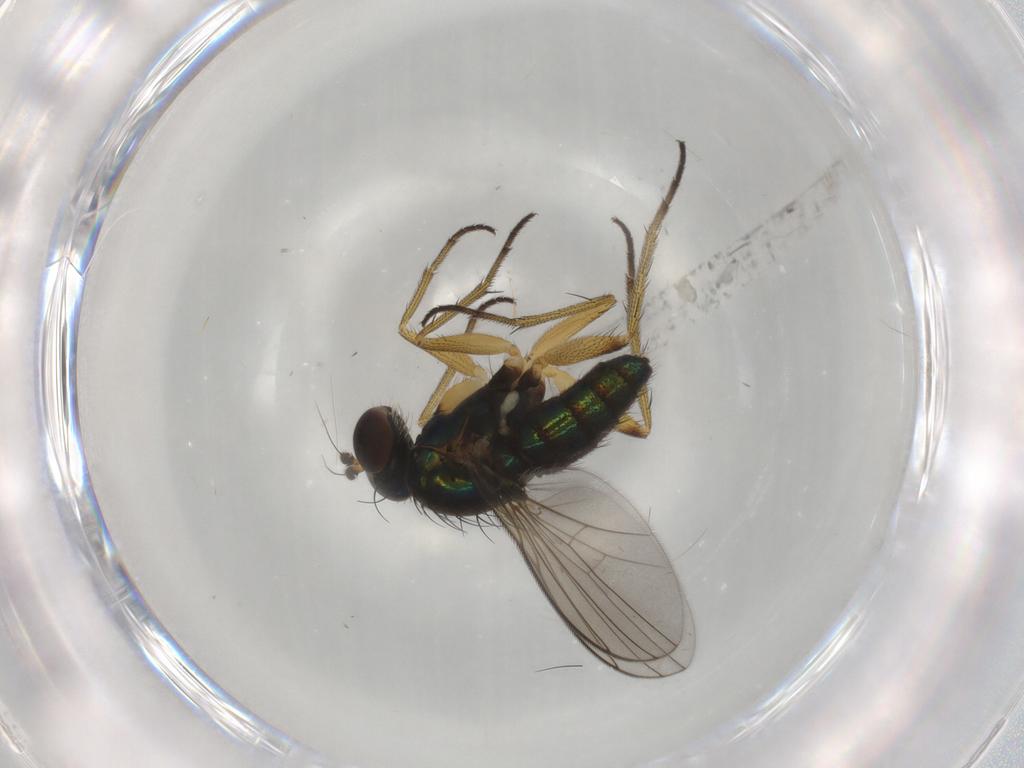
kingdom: Animalia
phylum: Arthropoda
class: Insecta
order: Diptera
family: Dolichopodidae
